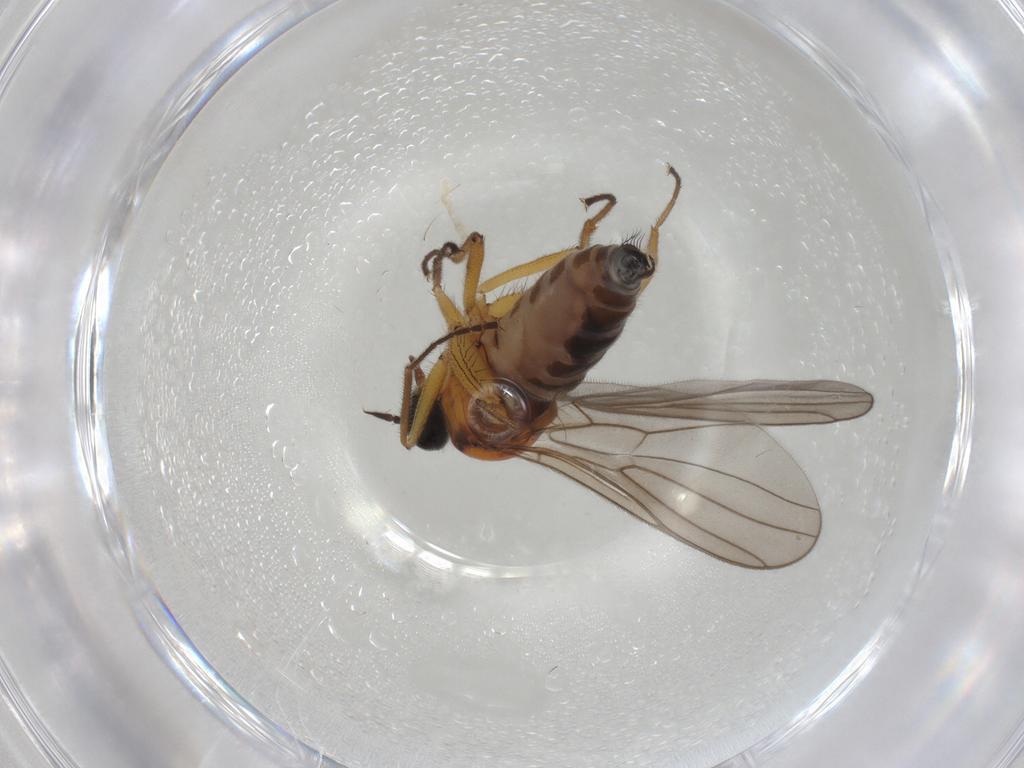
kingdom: Animalia
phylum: Arthropoda
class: Insecta
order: Diptera
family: Hybotidae
